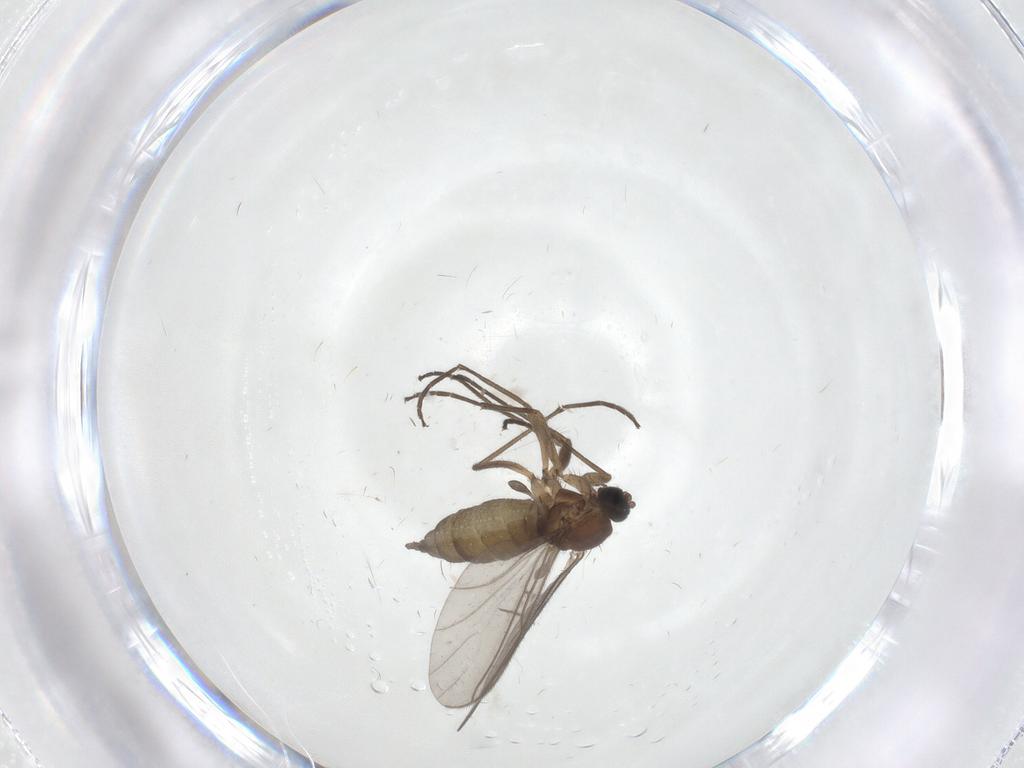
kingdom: Animalia
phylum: Arthropoda
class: Insecta
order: Diptera
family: Sciaridae
